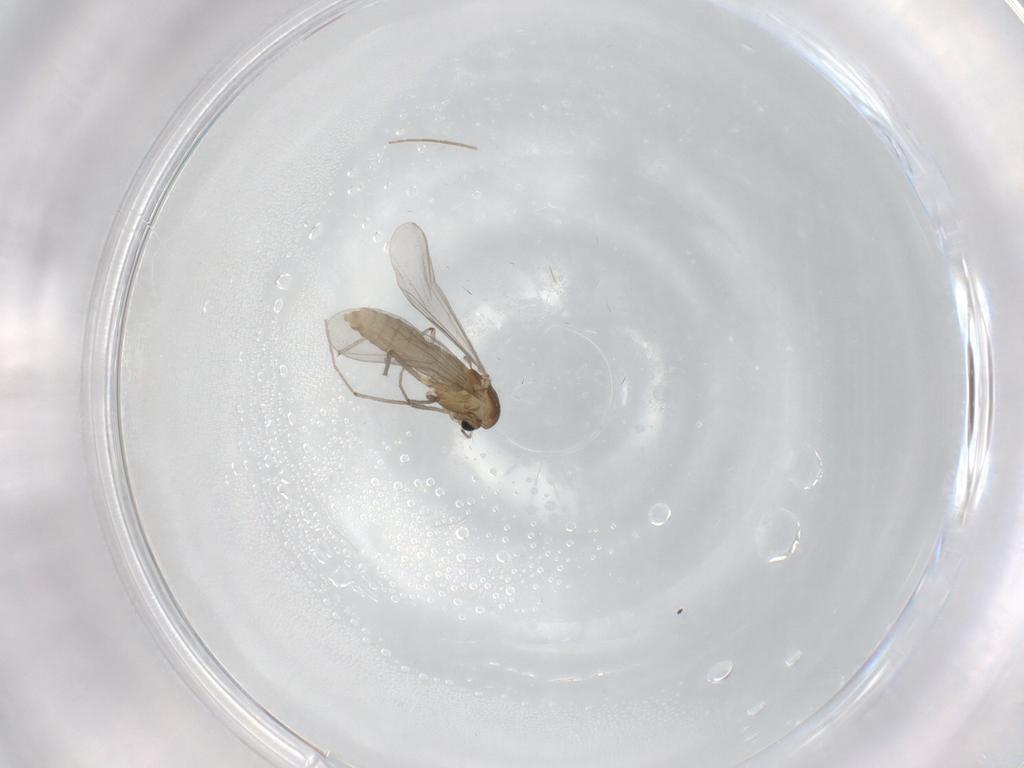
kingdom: Animalia
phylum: Arthropoda
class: Insecta
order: Diptera
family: Chironomidae
